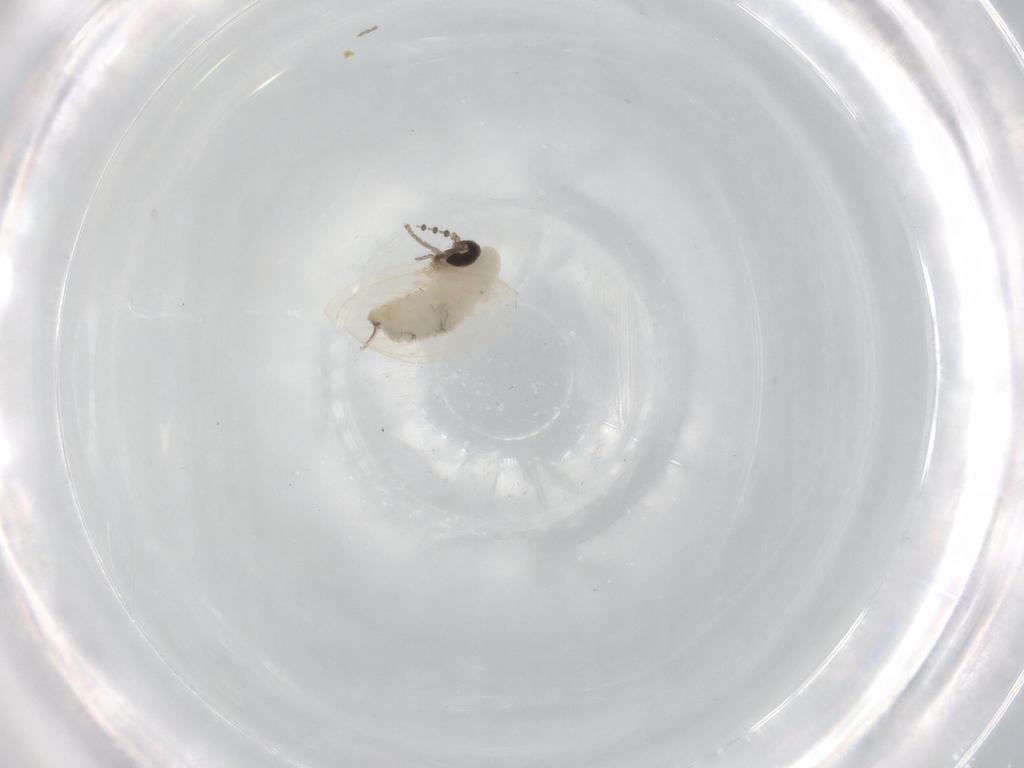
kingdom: Animalia
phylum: Arthropoda
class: Insecta
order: Diptera
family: Psychodidae
